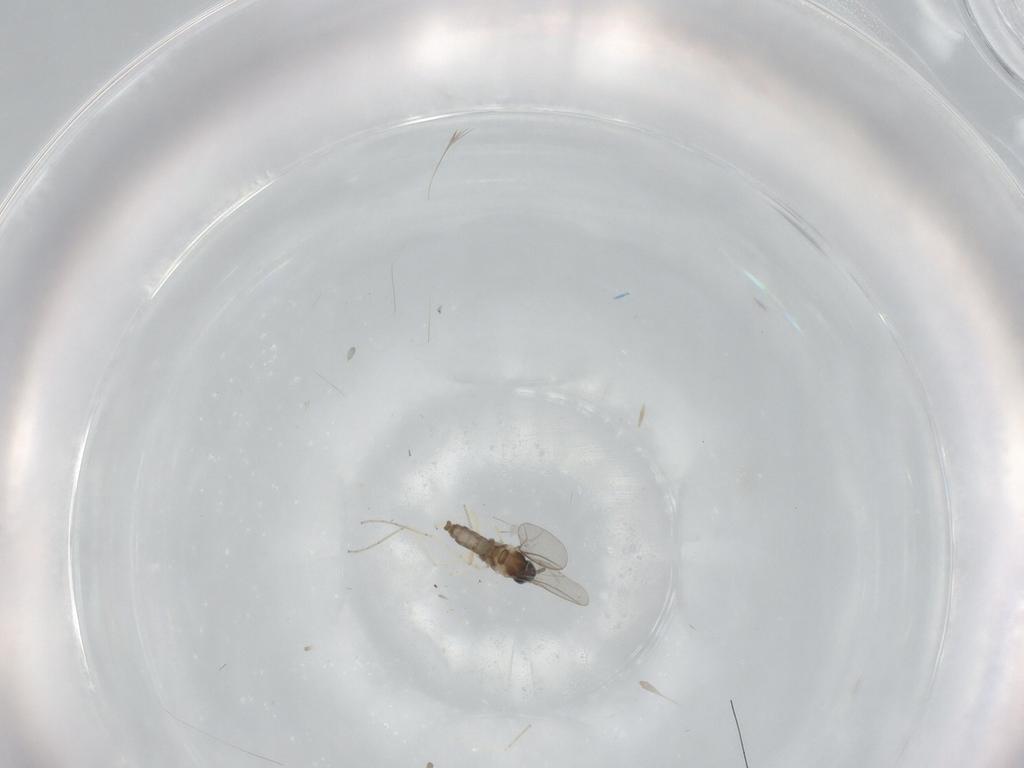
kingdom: Animalia
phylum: Arthropoda
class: Insecta
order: Diptera
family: Cecidomyiidae
